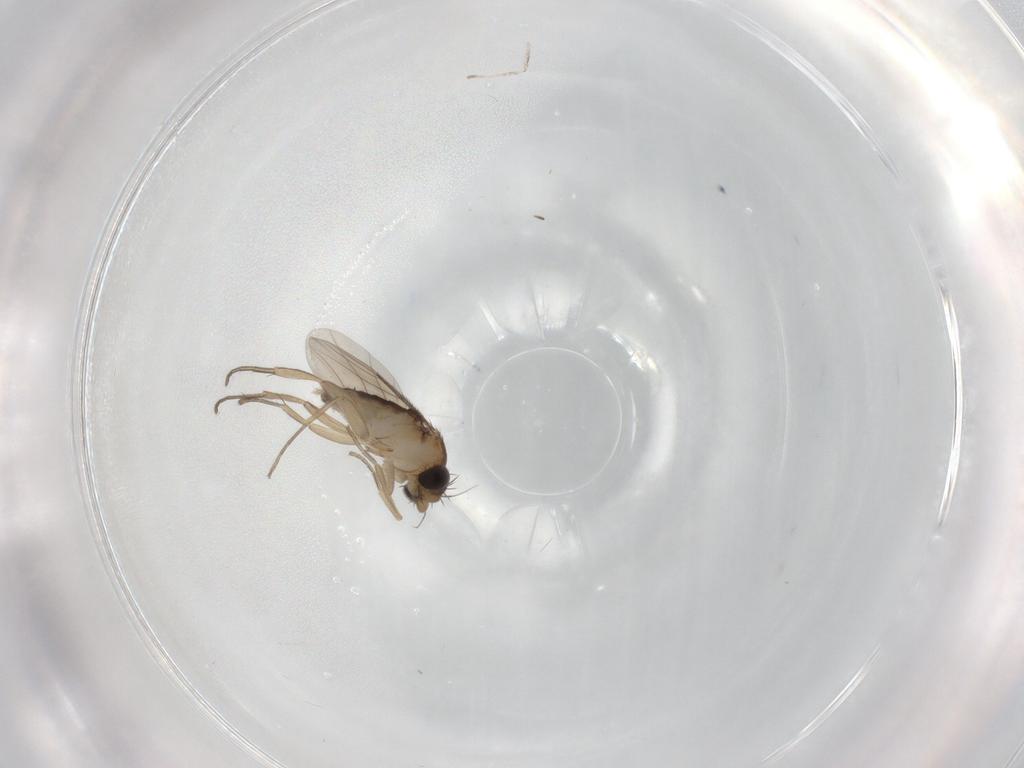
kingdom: Animalia
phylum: Arthropoda
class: Insecta
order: Diptera
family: Phoridae
